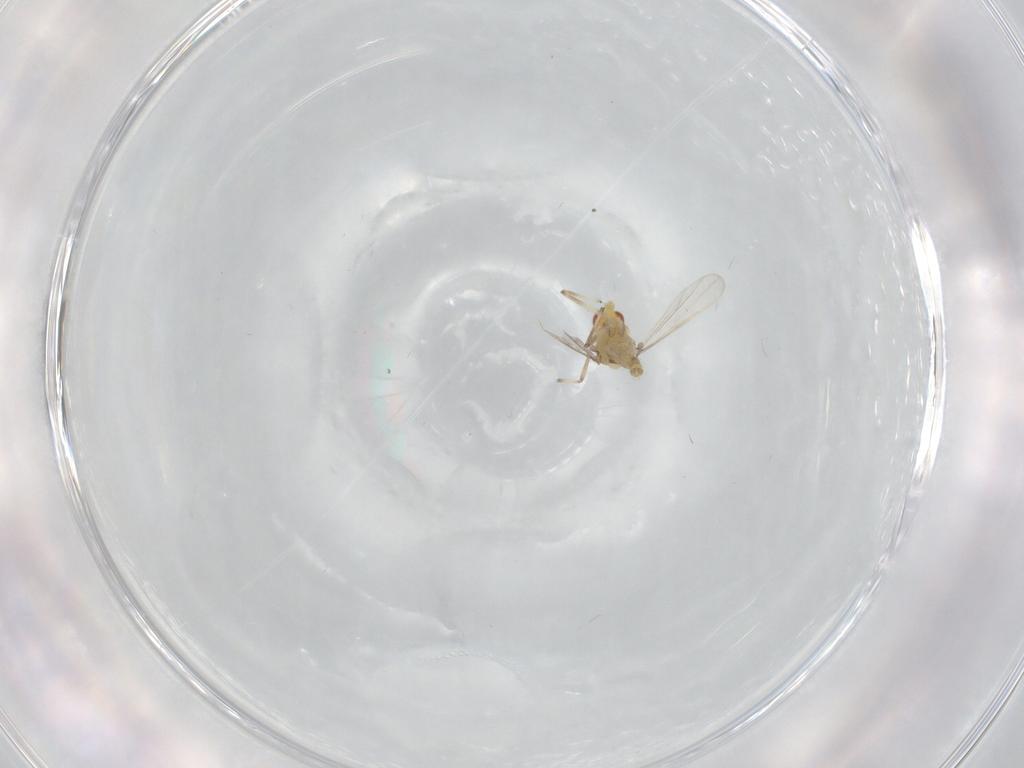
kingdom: Animalia
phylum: Arthropoda
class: Insecta
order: Diptera
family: Chironomidae
